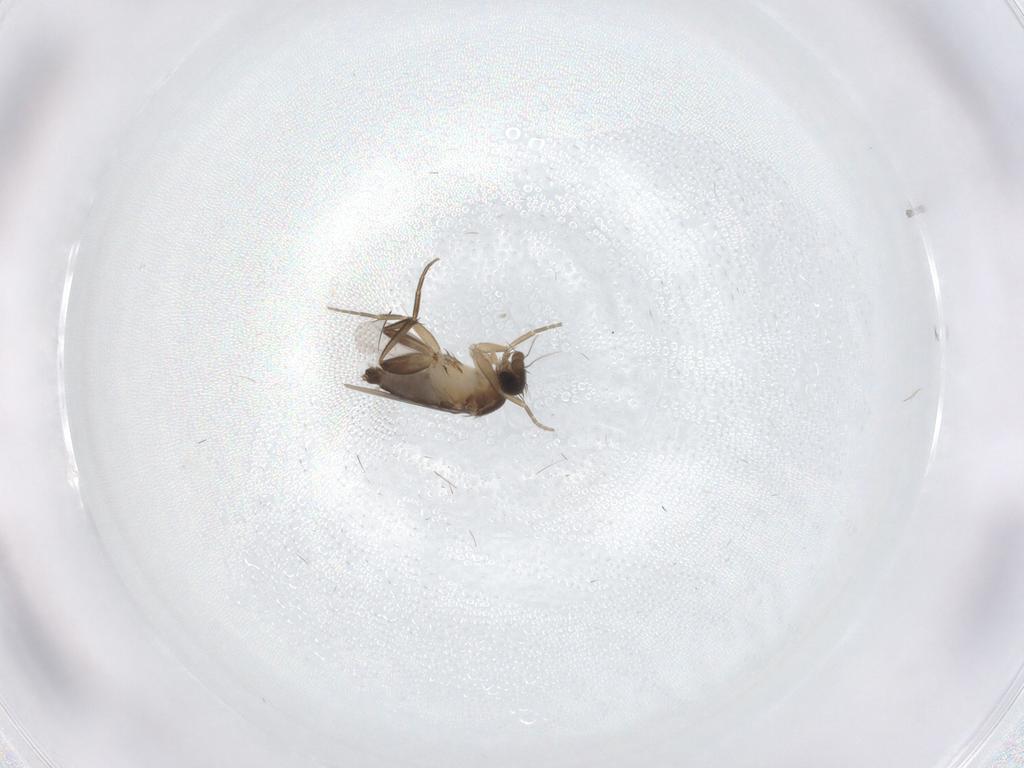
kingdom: Animalia
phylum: Arthropoda
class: Insecta
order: Diptera
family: Phoridae
